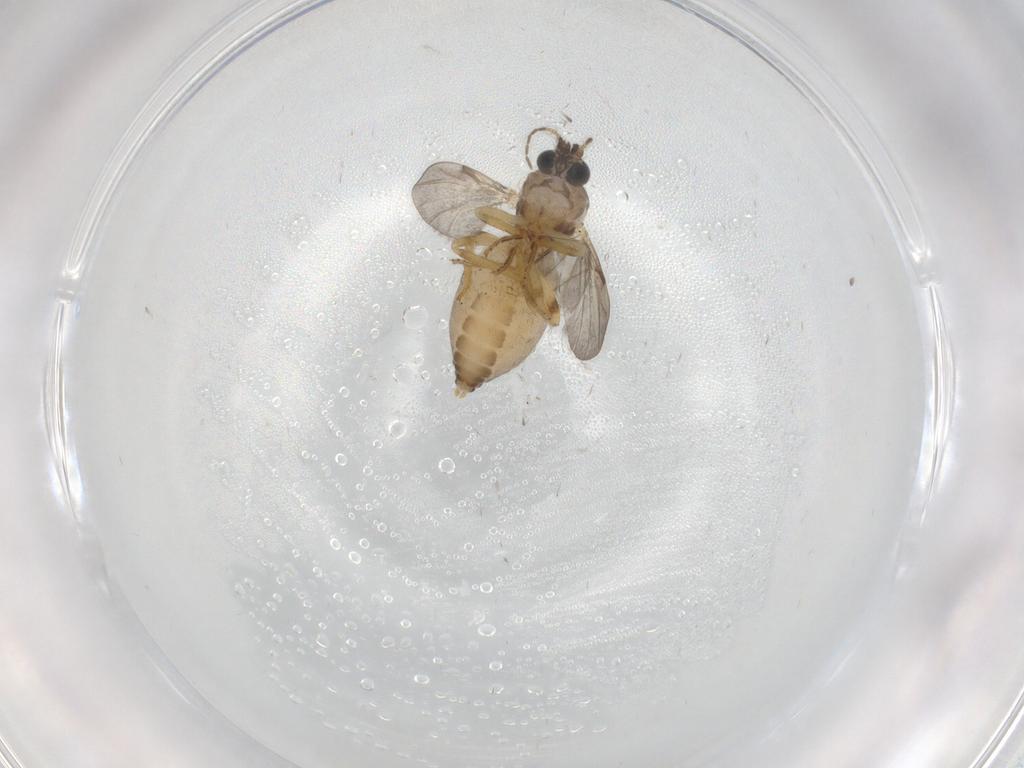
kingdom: Animalia
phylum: Arthropoda
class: Insecta
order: Diptera
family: Ceratopogonidae
